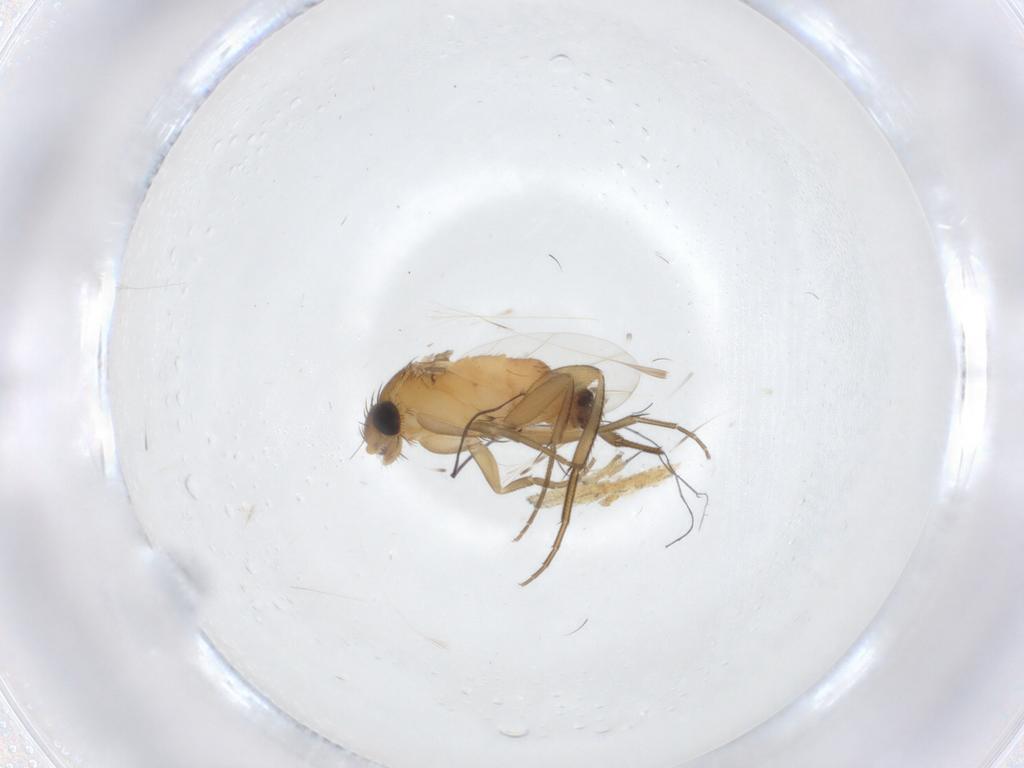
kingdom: Animalia
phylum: Arthropoda
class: Insecta
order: Diptera
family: Phoridae
